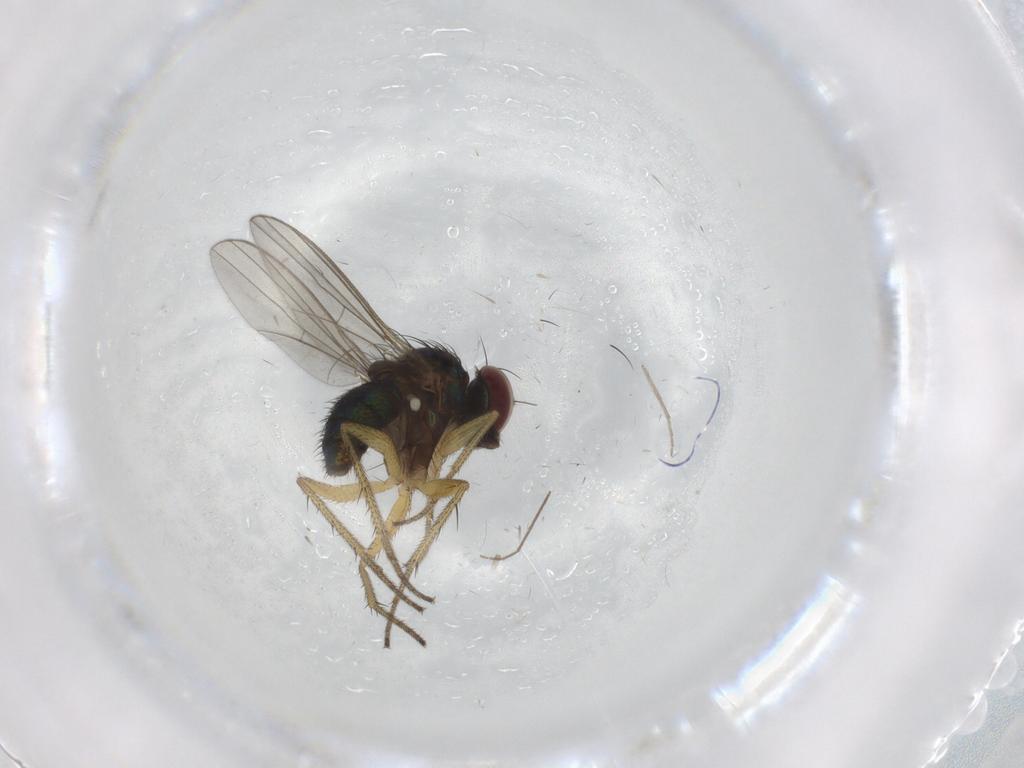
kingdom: Animalia
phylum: Arthropoda
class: Insecta
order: Diptera
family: Chironomidae
